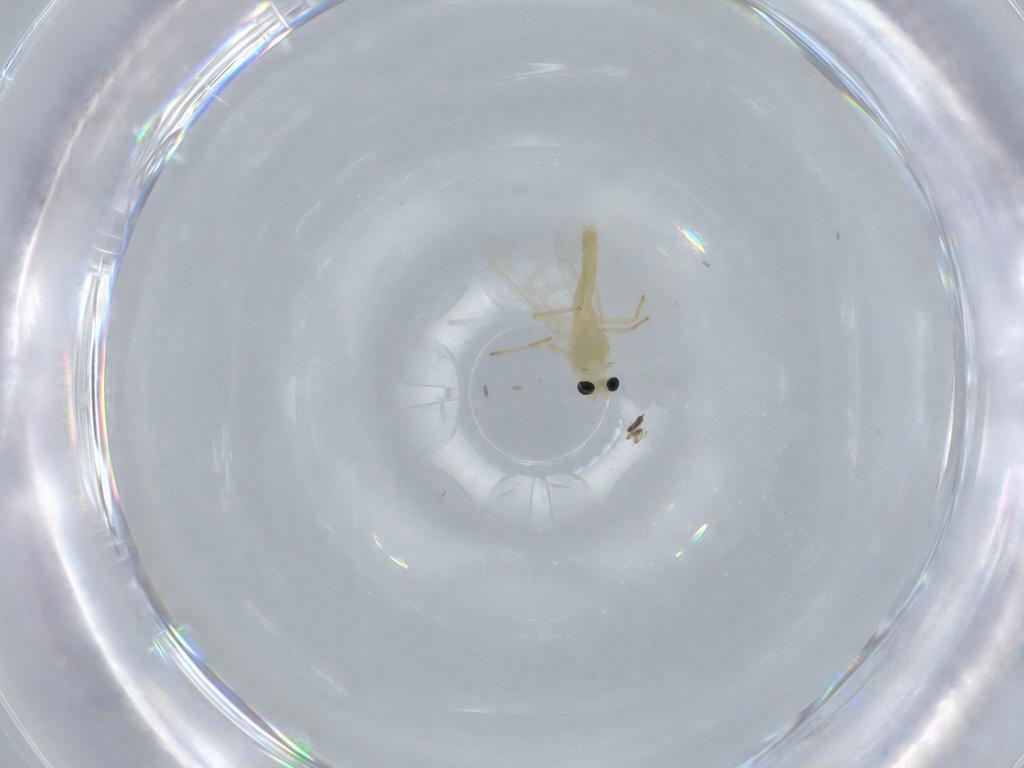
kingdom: Animalia
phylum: Arthropoda
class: Insecta
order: Diptera
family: Chironomidae
